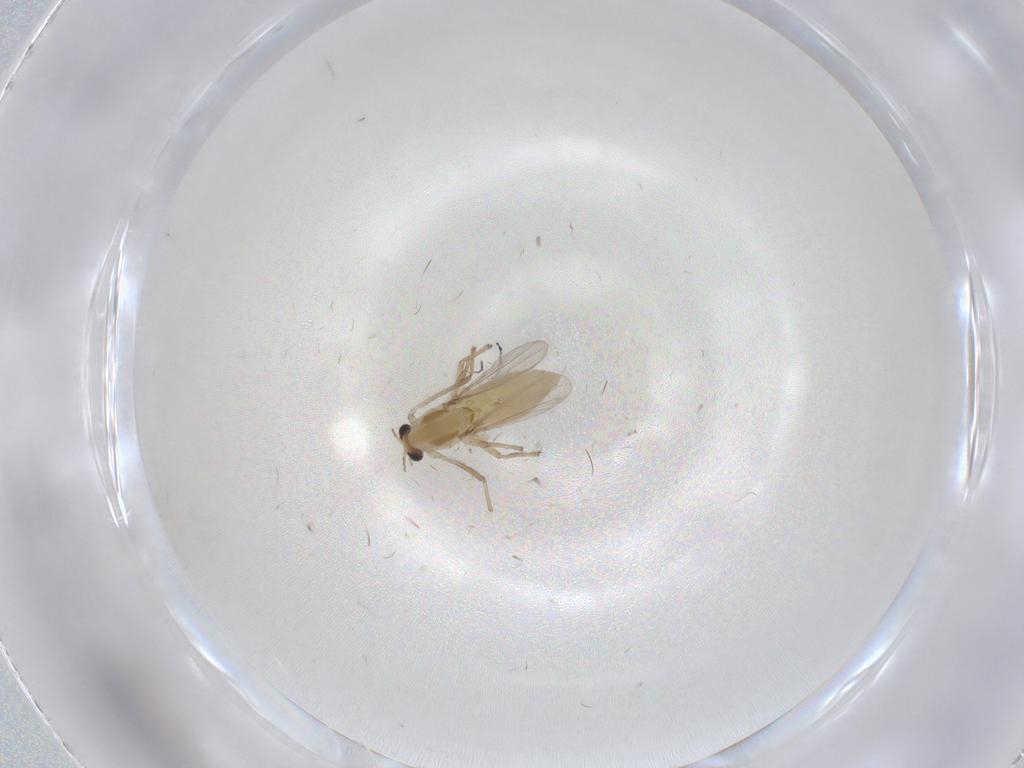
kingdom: Animalia
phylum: Arthropoda
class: Insecta
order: Diptera
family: Chironomidae
